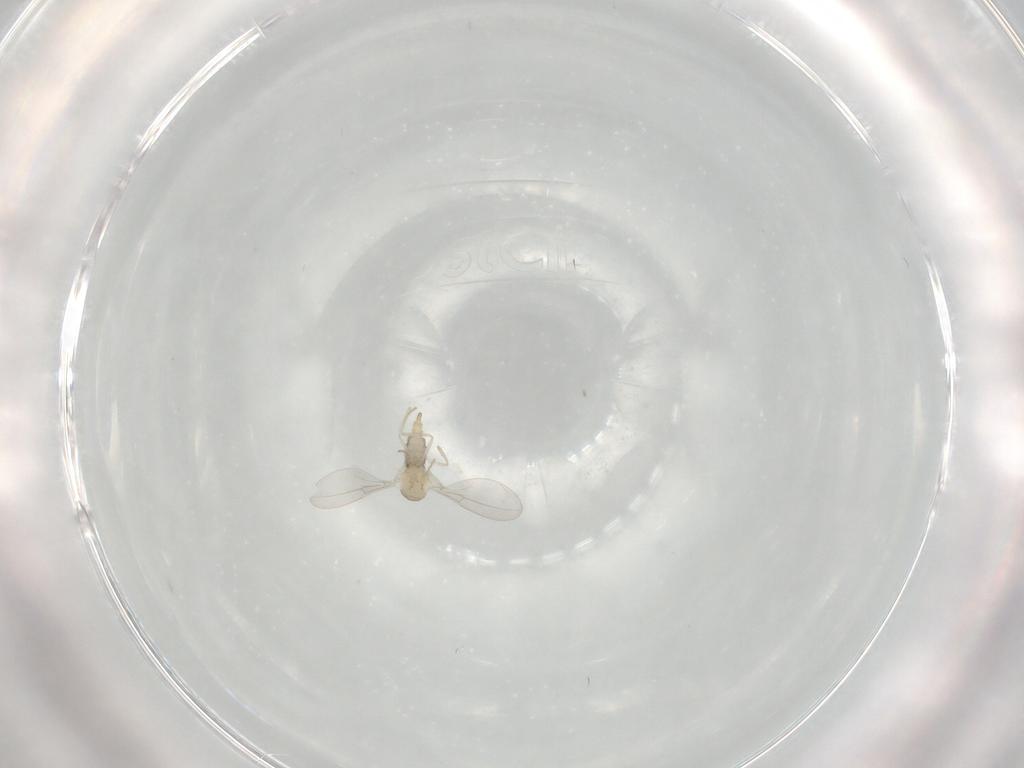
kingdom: Animalia
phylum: Arthropoda
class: Insecta
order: Diptera
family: Cecidomyiidae
